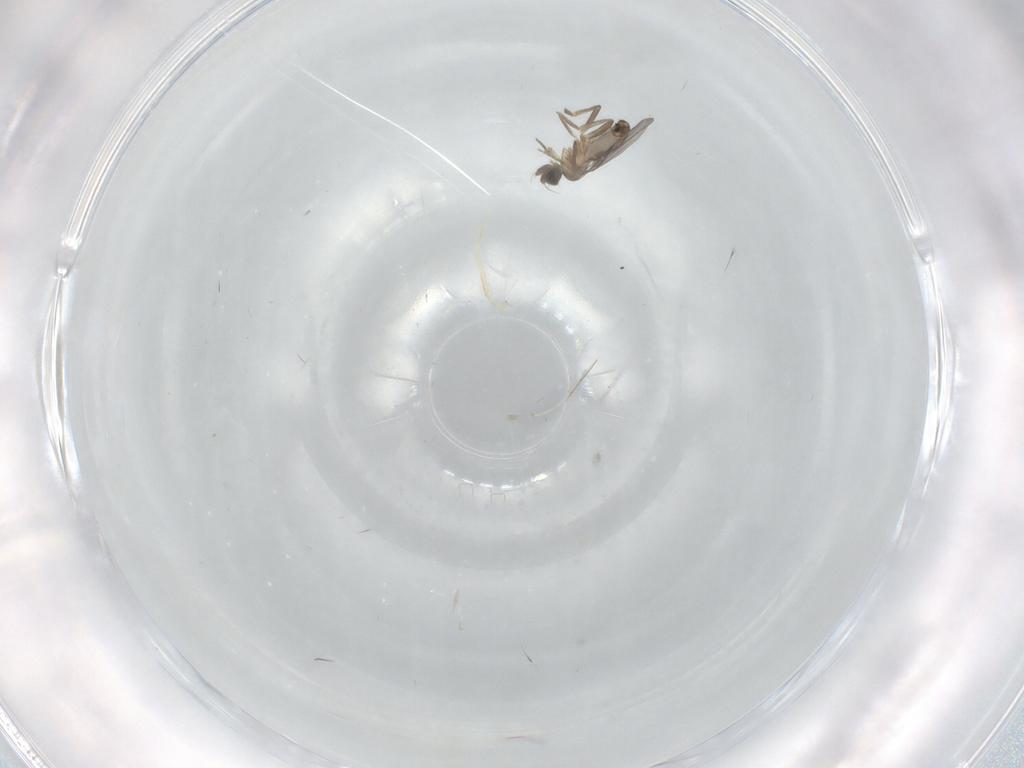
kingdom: Animalia
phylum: Arthropoda
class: Insecta
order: Diptera
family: Cecidomyiidae
